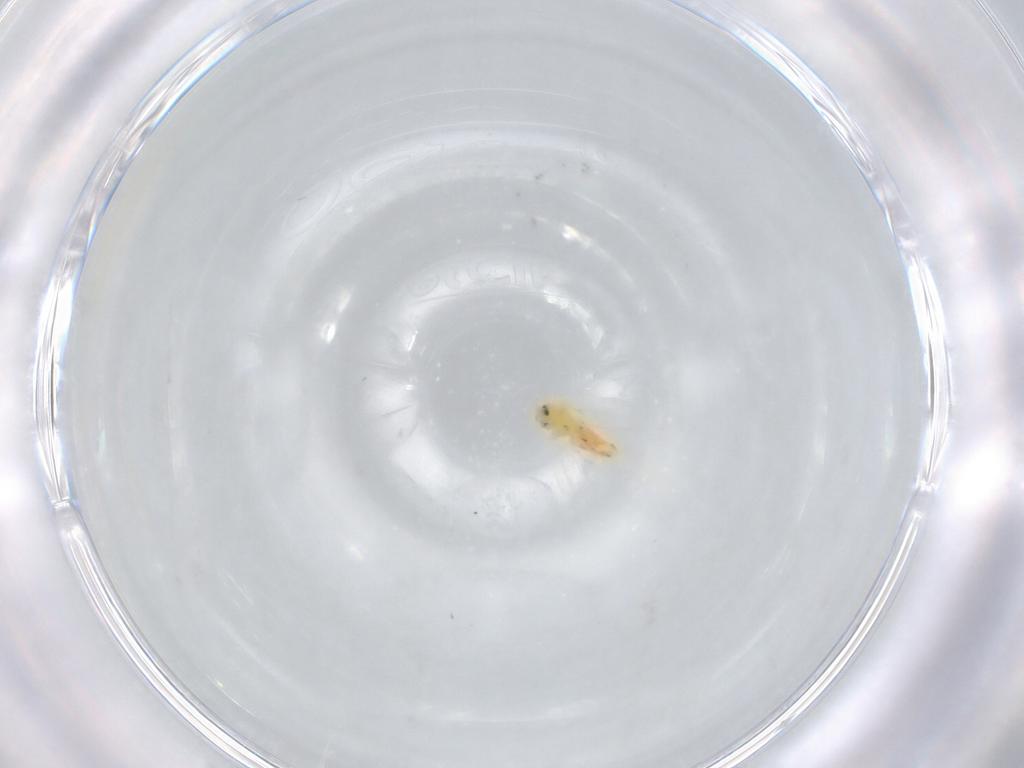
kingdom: Animalia
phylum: Arthropoda
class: Insecta
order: Hemiptera
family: Aleyrodidae
